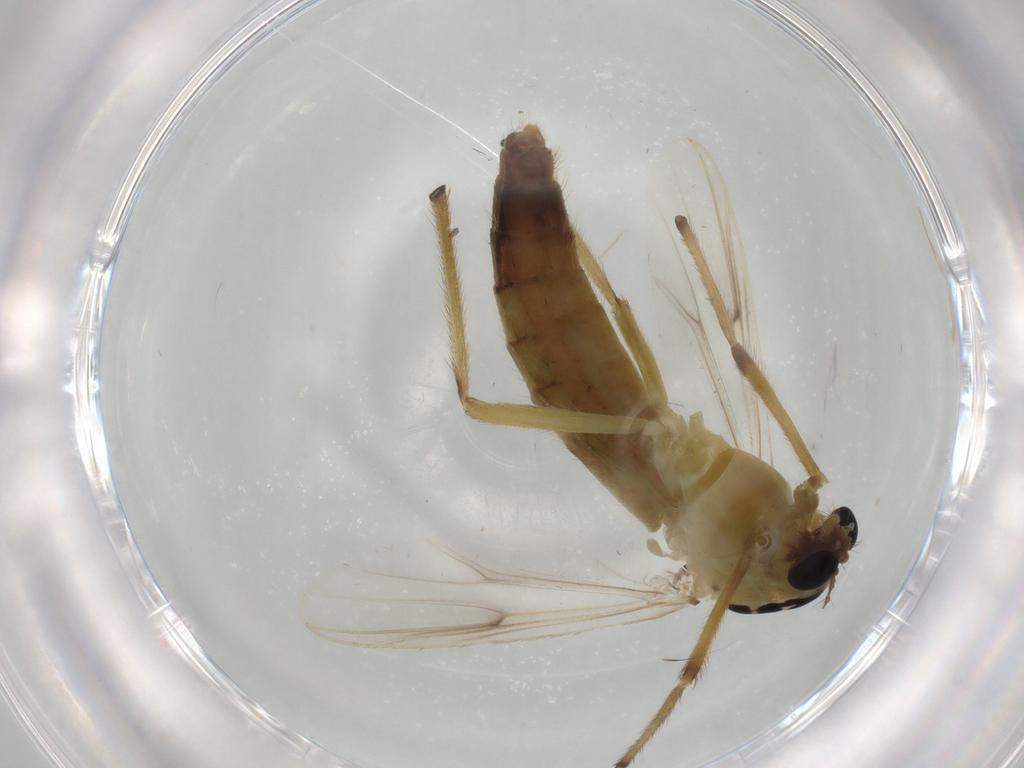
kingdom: Animalia
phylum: Arthropoda
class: Insecta
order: Diptera
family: Chironomidae
